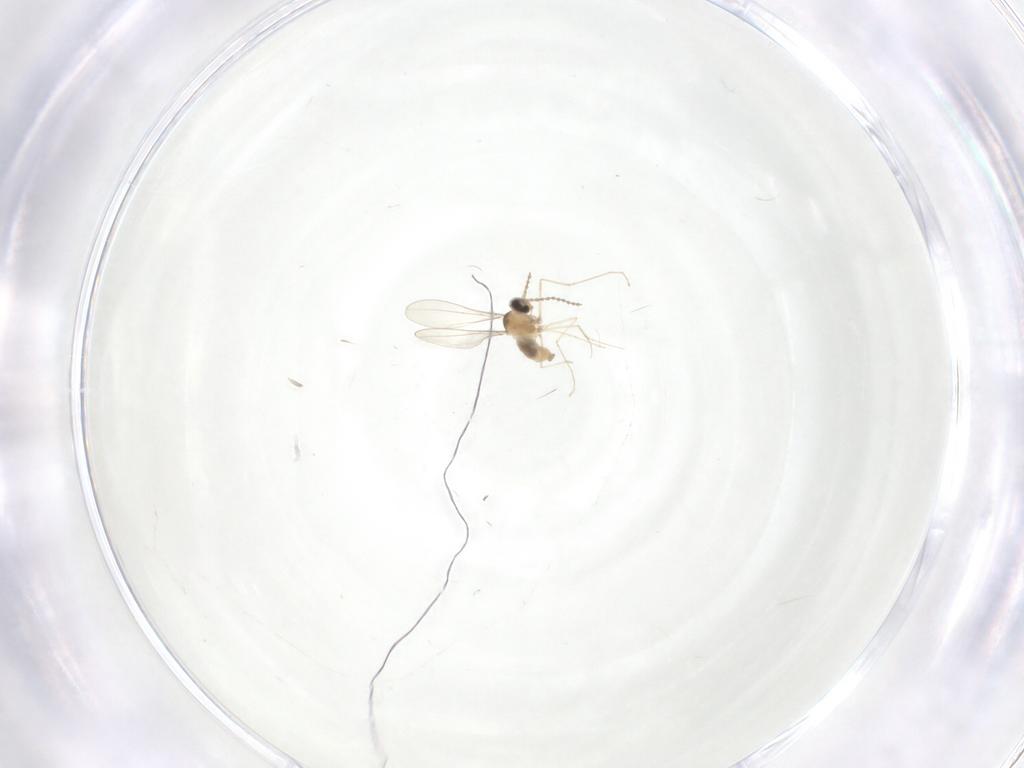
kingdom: Animalia
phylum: Arthropoda
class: Insecta
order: Diptera
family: Cecidomyiidae
